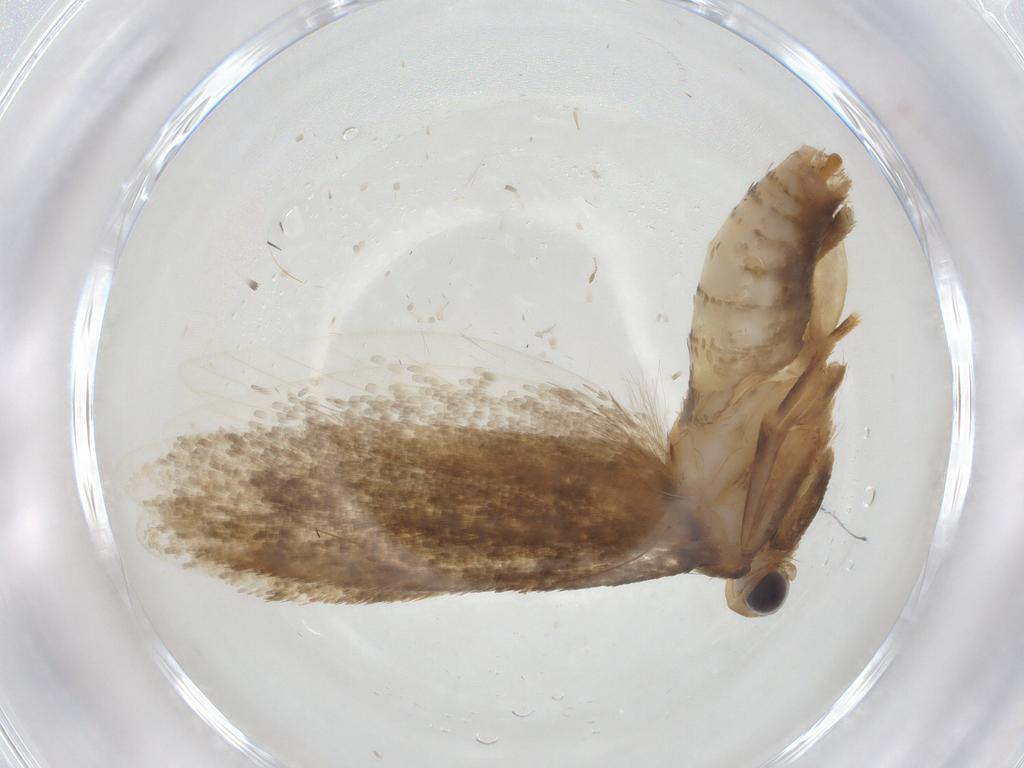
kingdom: Animalia
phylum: Arthropoda
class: Insecta
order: Lepidoptera
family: Tineidae
